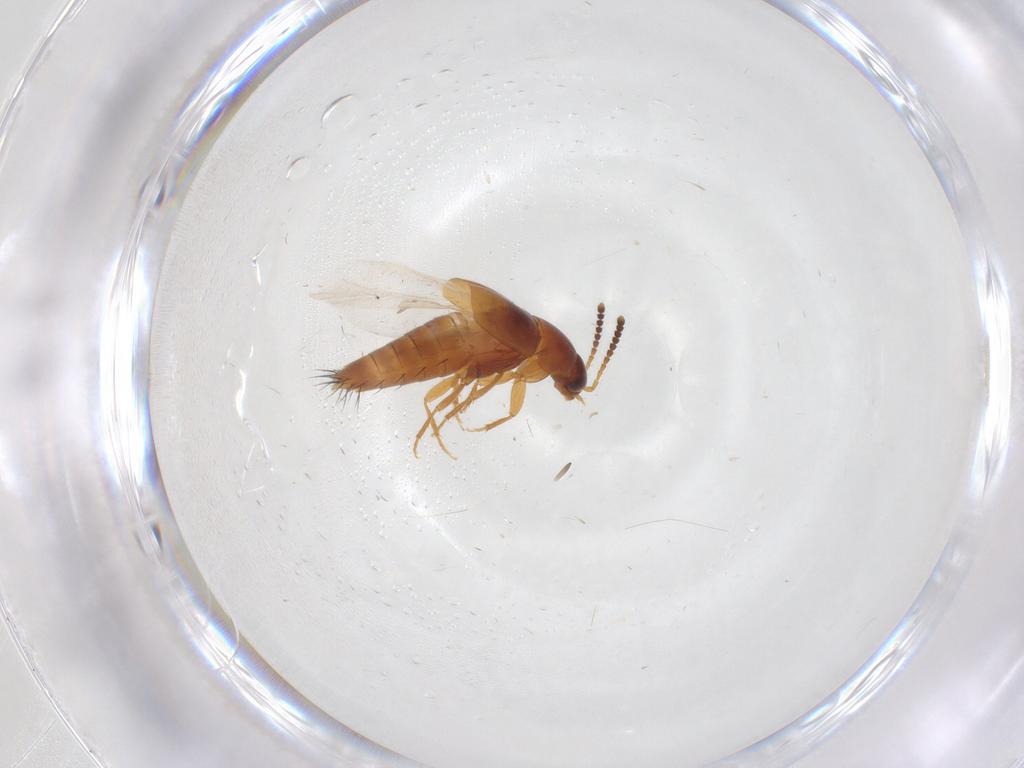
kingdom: Animalia
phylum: Arthropoda
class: Insecta
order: Coleoptera
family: Staphylinidae
